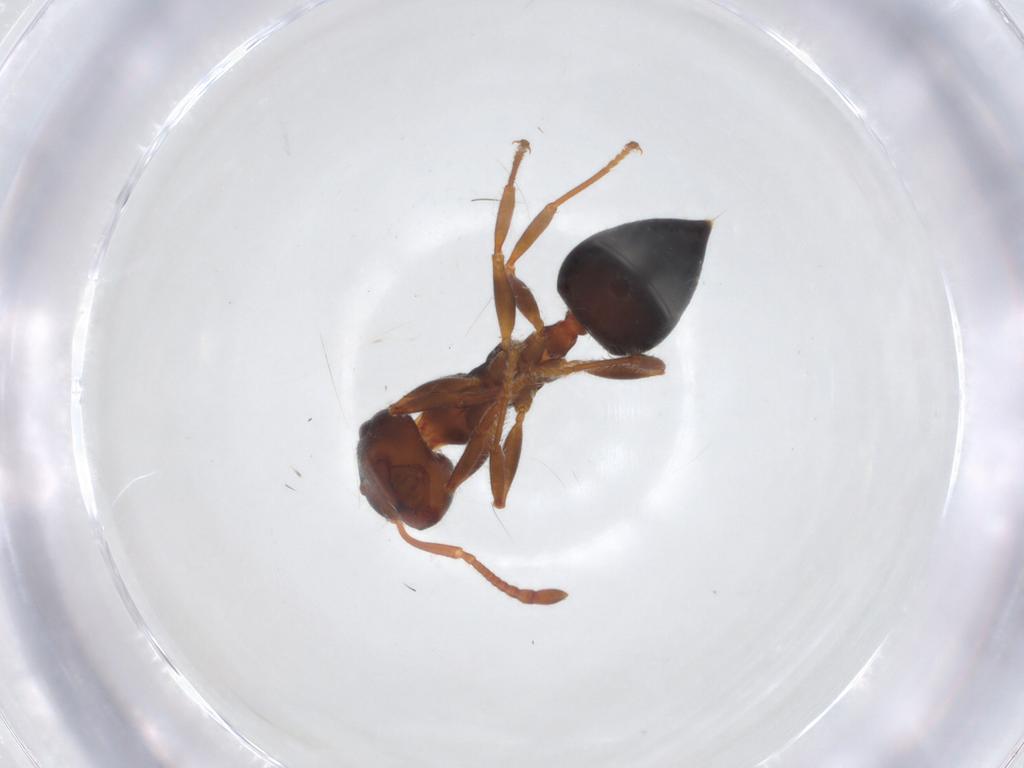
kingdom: Animalia
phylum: Arthropoda
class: Insecta
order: Hymenoptera
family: Formicidae
